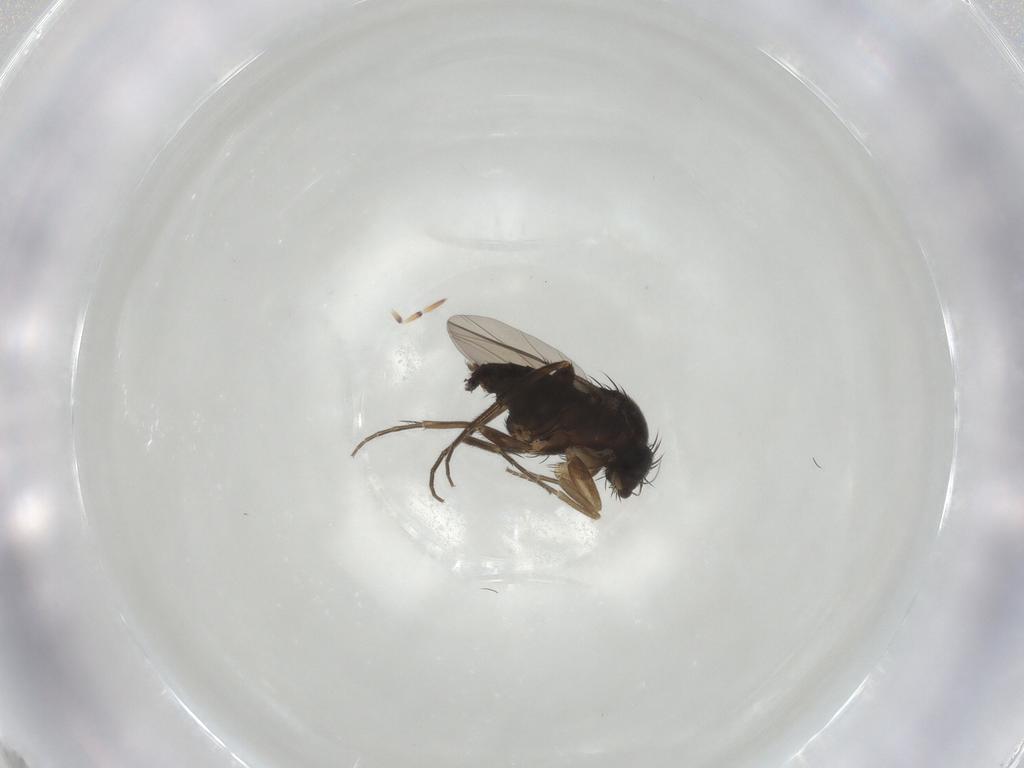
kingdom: Animalia
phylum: Arthropoda
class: Insecta
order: Diptera
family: Phoridae
